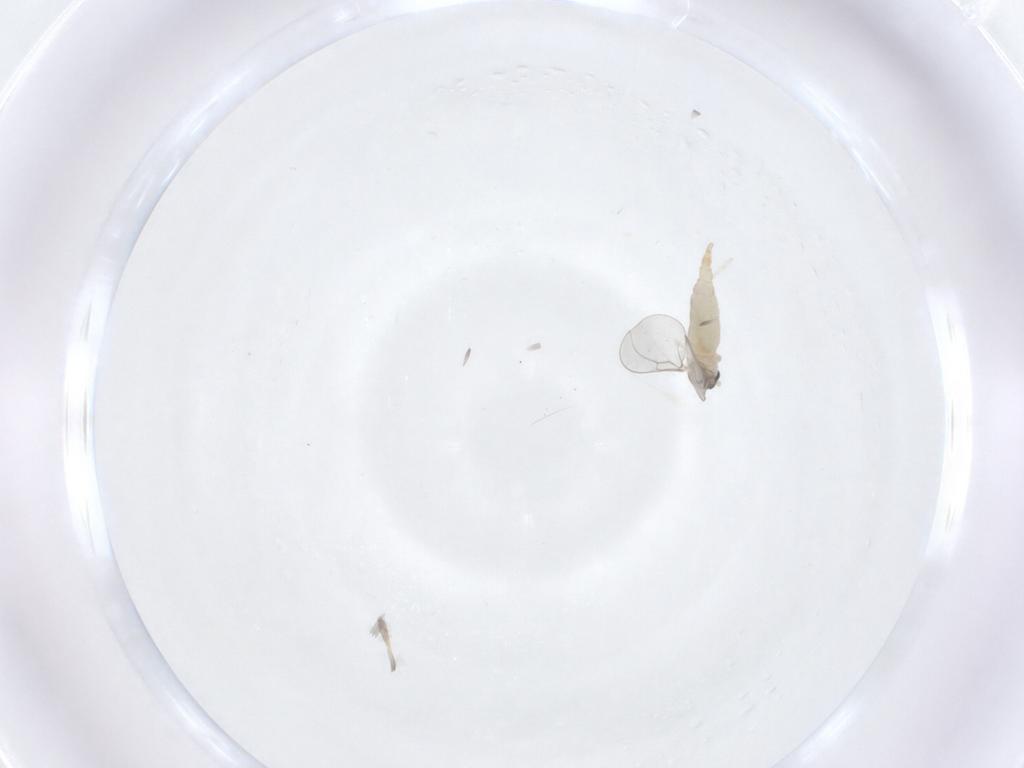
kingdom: Animalia
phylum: Arthropoda
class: Insecta
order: Diptera
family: Cecidomyiidae
